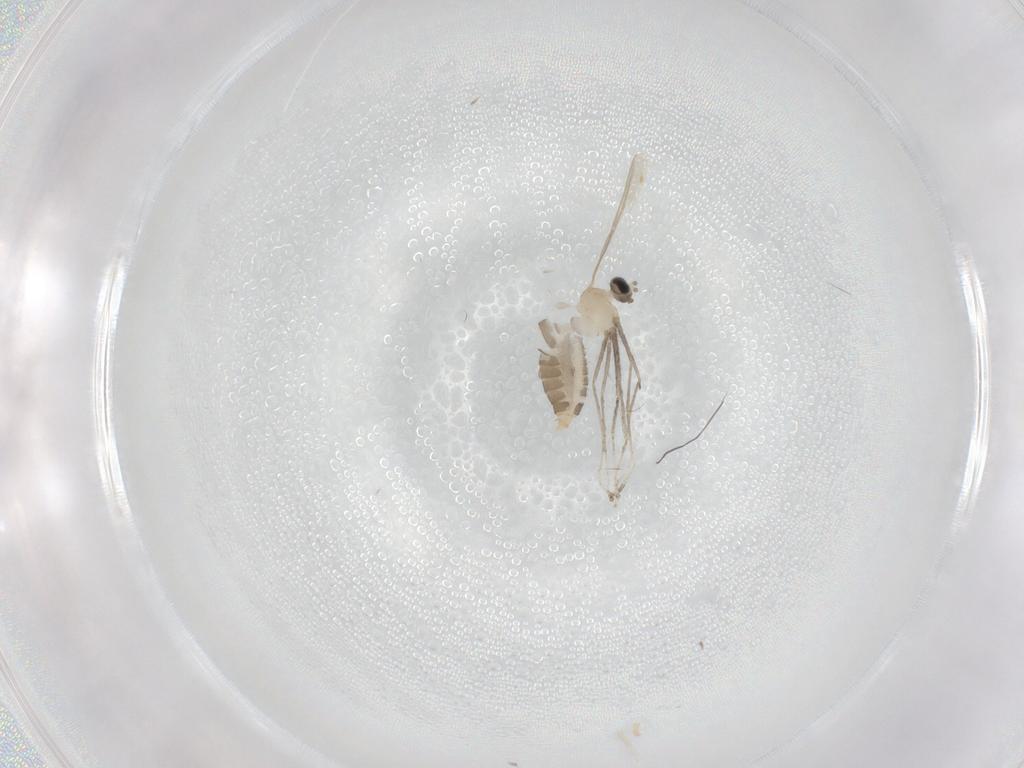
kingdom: Animalia
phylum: Arthropoda
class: Insecta
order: Diptera
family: Cecidomyiidae
